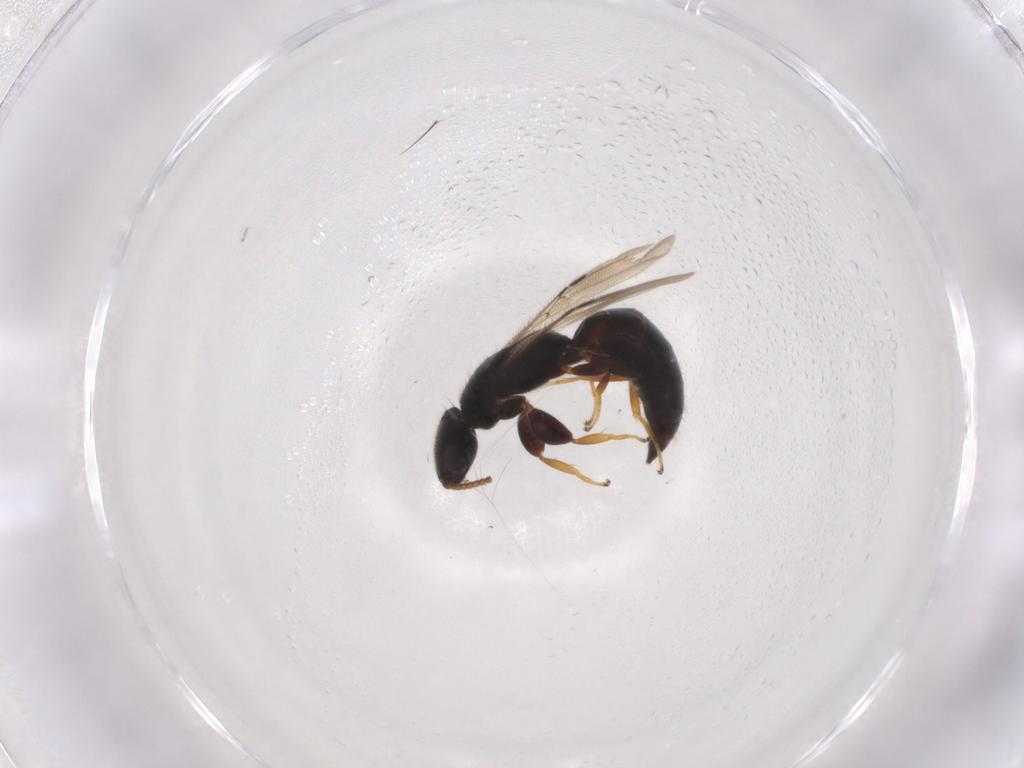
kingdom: Animalia
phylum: Arthropoda
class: Insecta
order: Hymenoptera
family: Bethylidae
